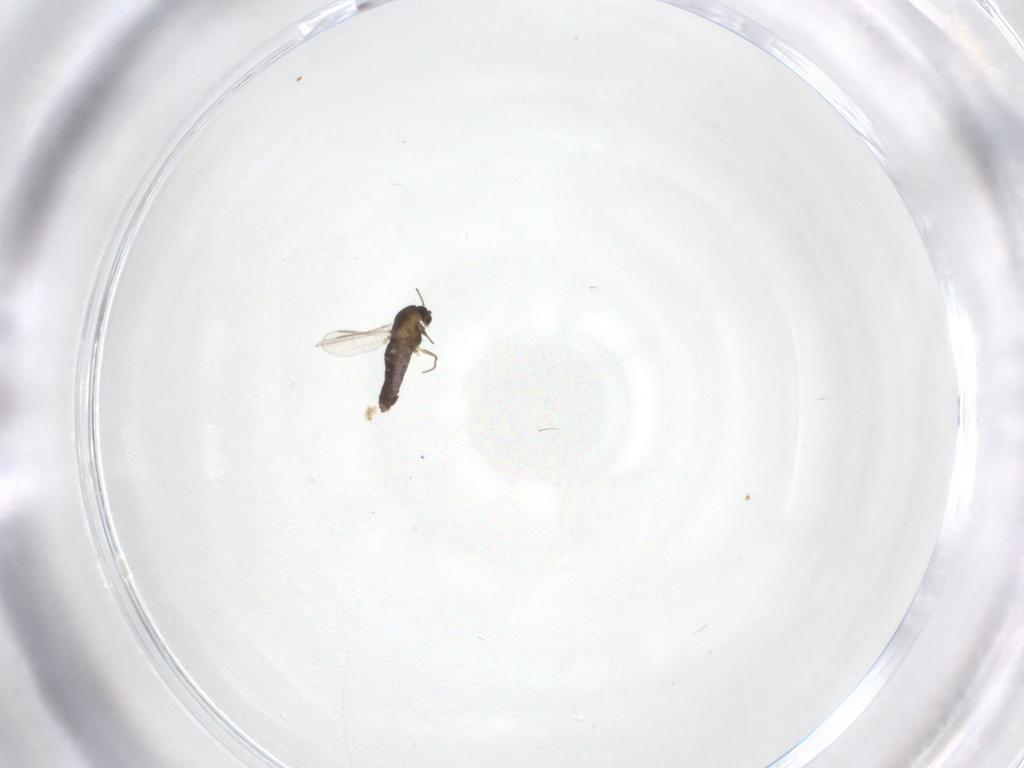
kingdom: Animalia
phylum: Arthropoda
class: Insecta
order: Diptera
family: Chironomidae
